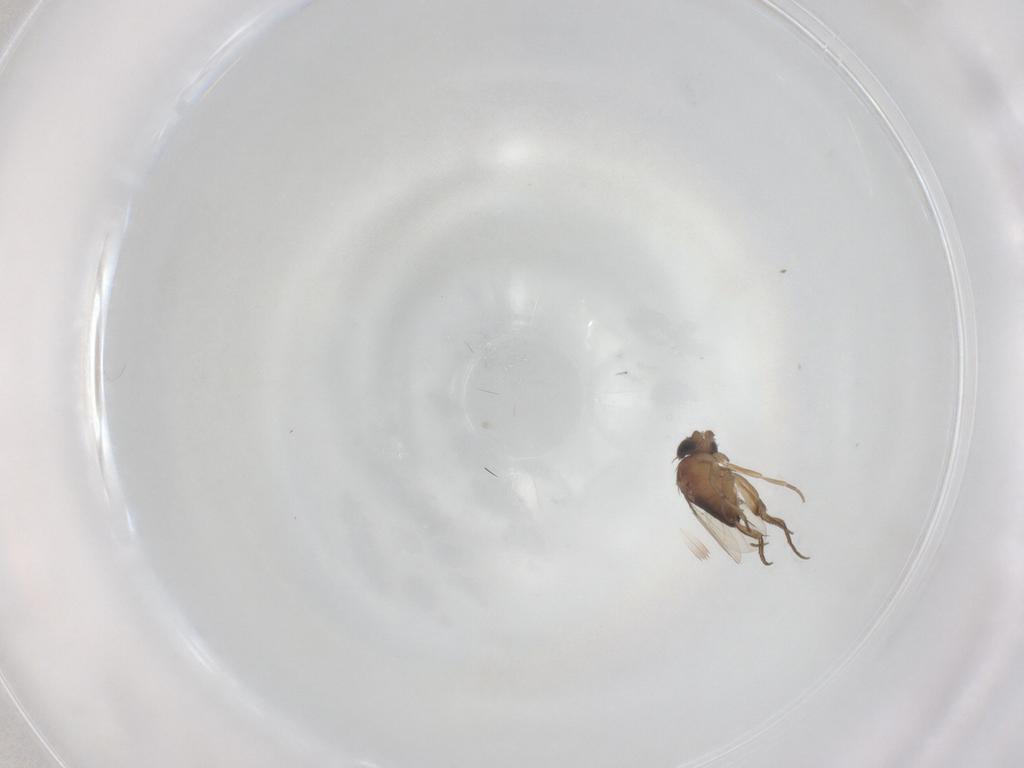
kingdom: Animalia
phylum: Arthropoda
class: Insecta
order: Diptera
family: Phoridae
